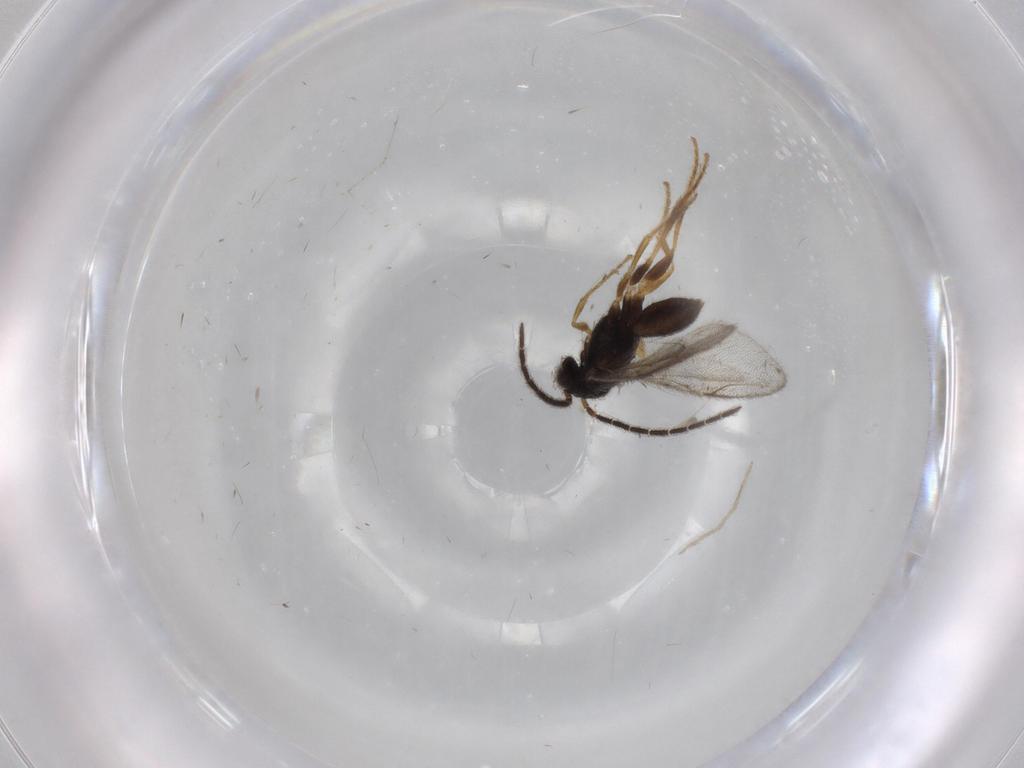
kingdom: Animalia
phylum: Arthropoda
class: Insecta
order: Hymenoptera
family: Dryinidae
